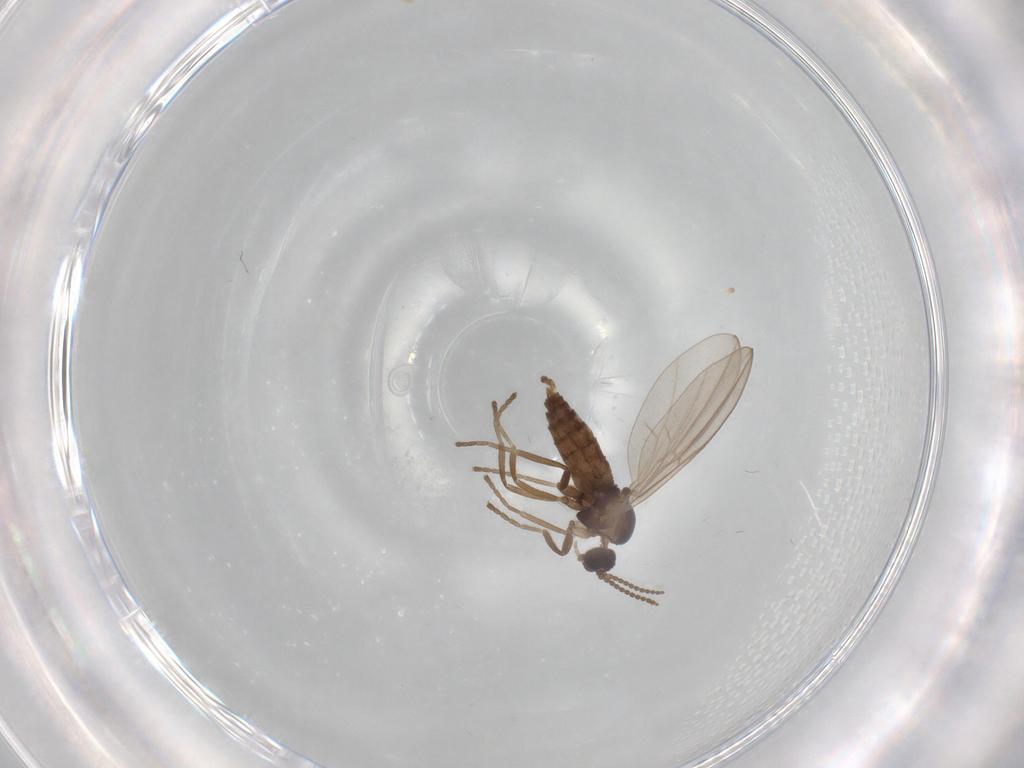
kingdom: Animalia
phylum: Arthropoda
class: Insecta
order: Diptera
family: Cecidomyiidae
